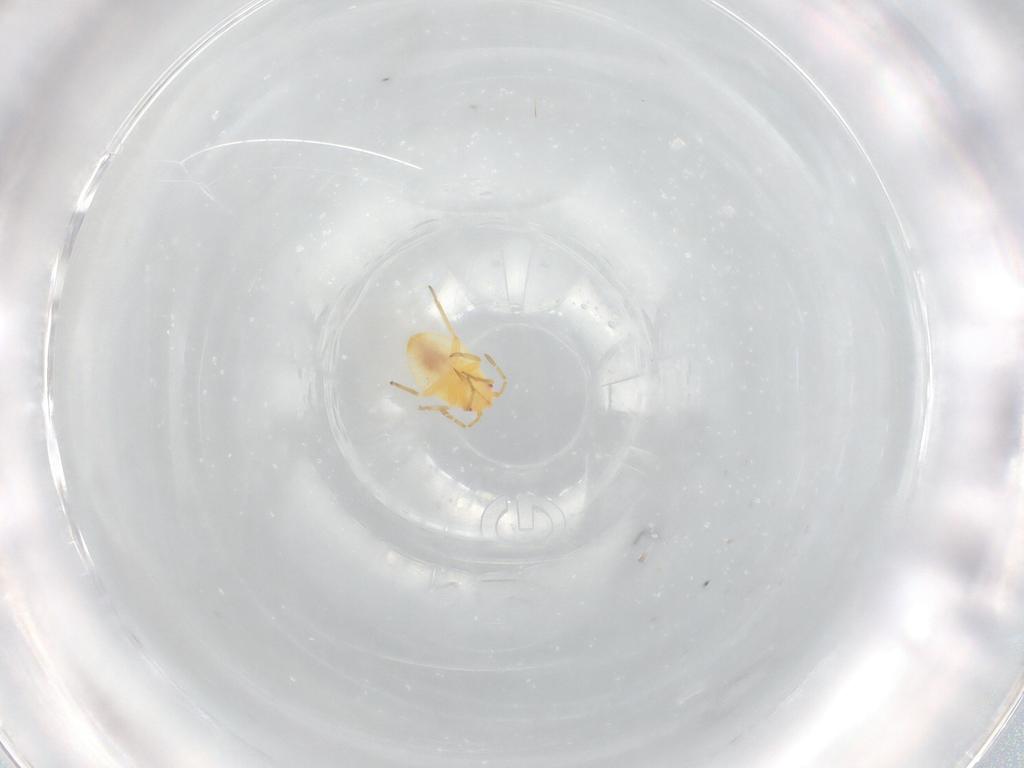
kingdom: Animalia
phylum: Arthropoda
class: Insecta
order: Hemiptera
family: Miridae
